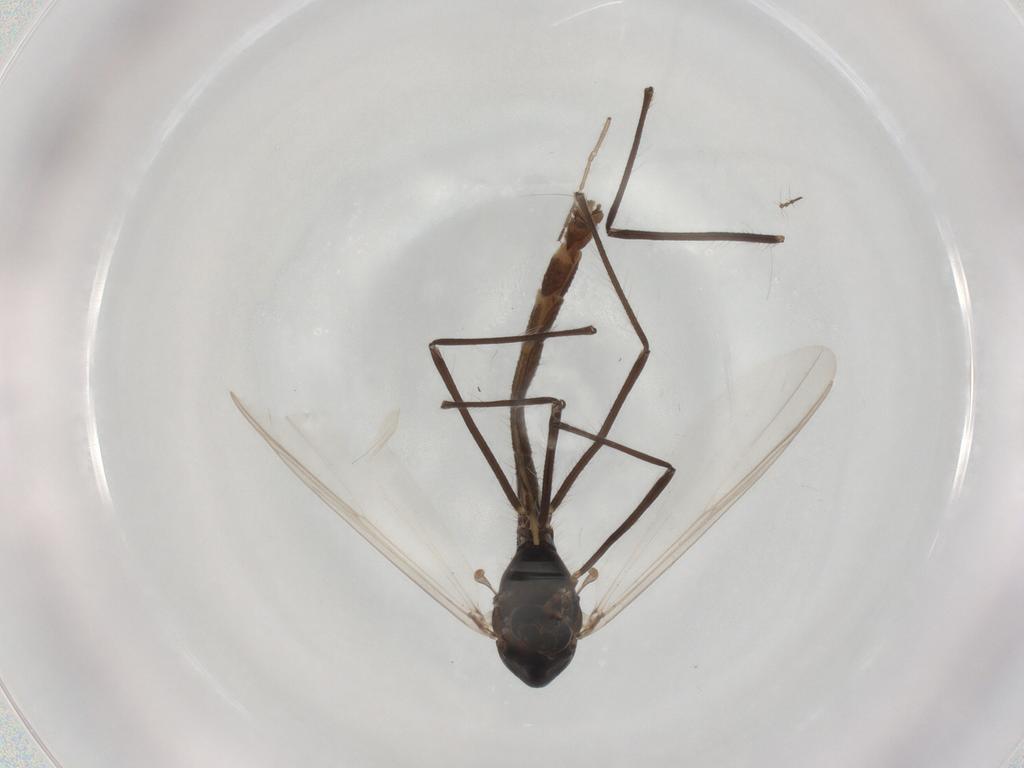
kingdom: Animalia
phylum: Arthropoda
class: Insecta
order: Diptera
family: Chironomidae
